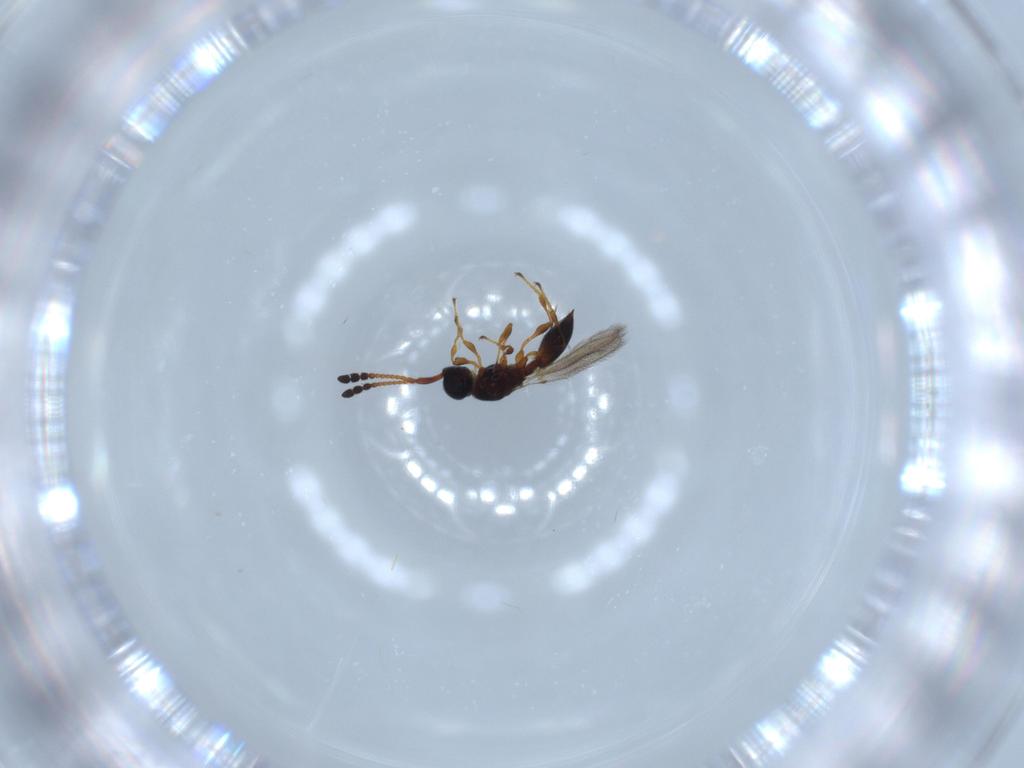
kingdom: Animalia
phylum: Arthropoda
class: Insecta
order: Hymenoptera
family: Diapriidae
